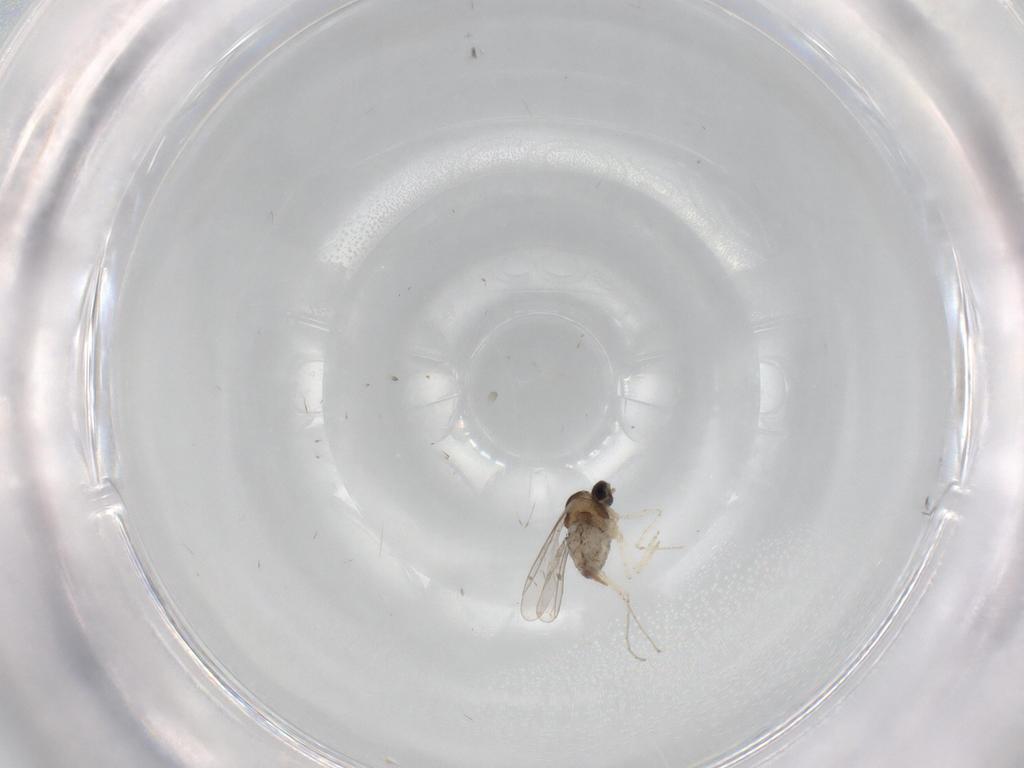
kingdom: Animalia
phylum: Arthropoda
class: Insecta
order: Diptera
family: Cecidomyiidae
